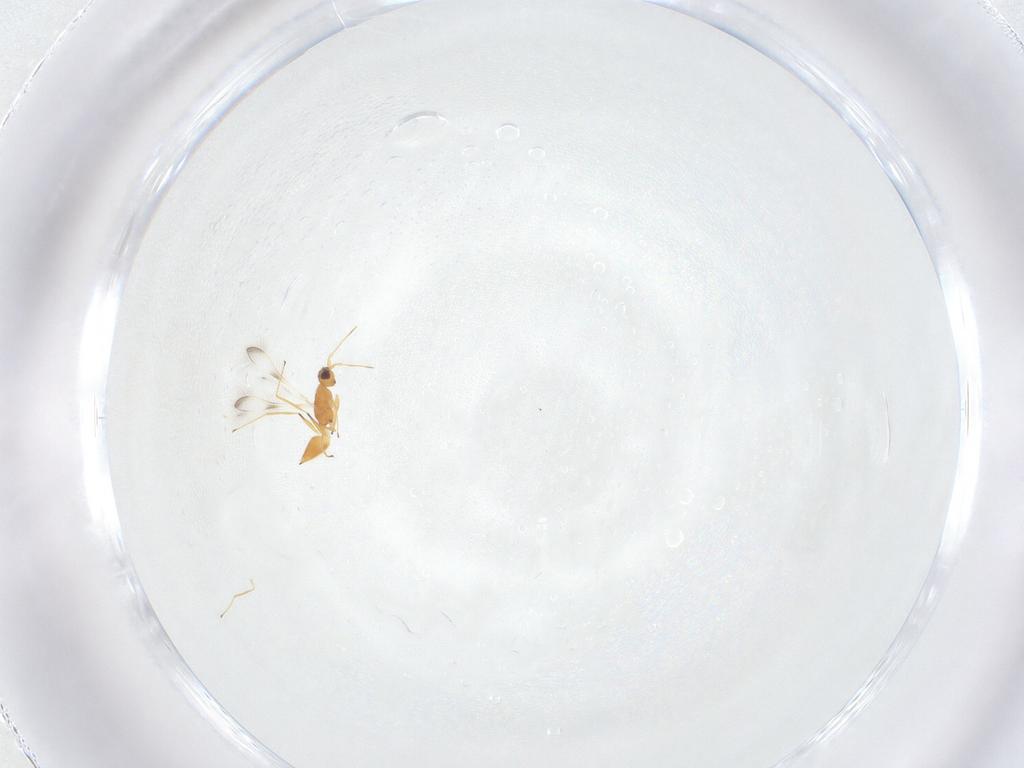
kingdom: Animalia
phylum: Arthropoda
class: Insecta
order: Hymenoptera
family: Mymaridae
